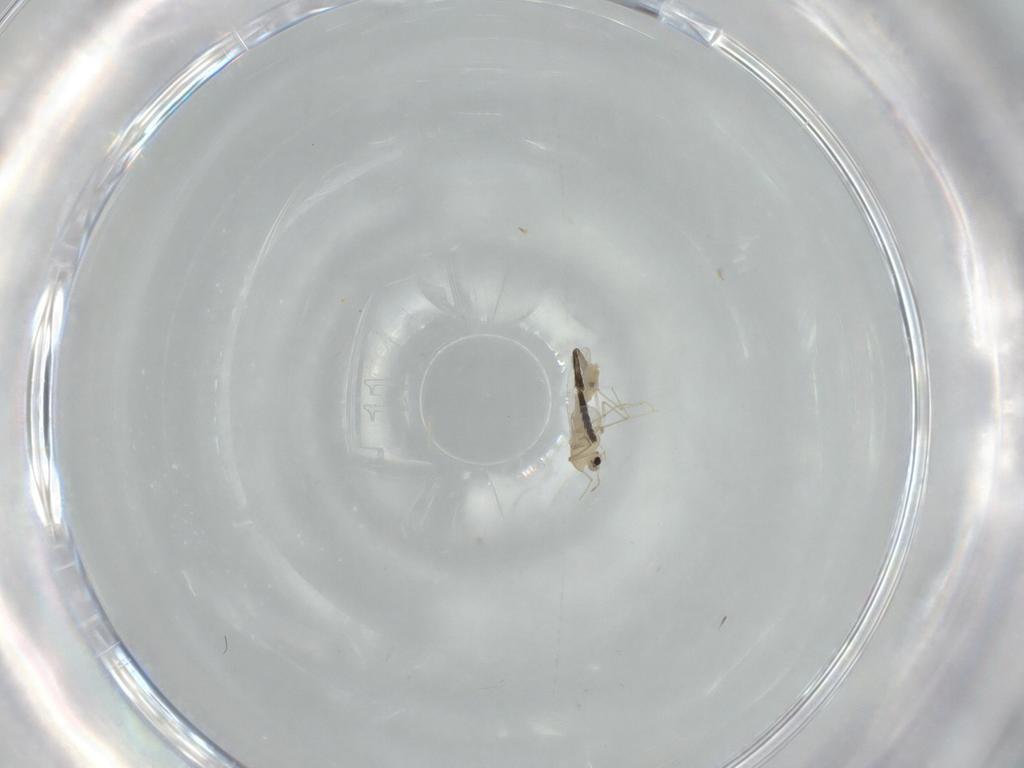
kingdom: Animalia
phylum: Arthropoda
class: Insecta
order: Diptera
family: Psychodidae
